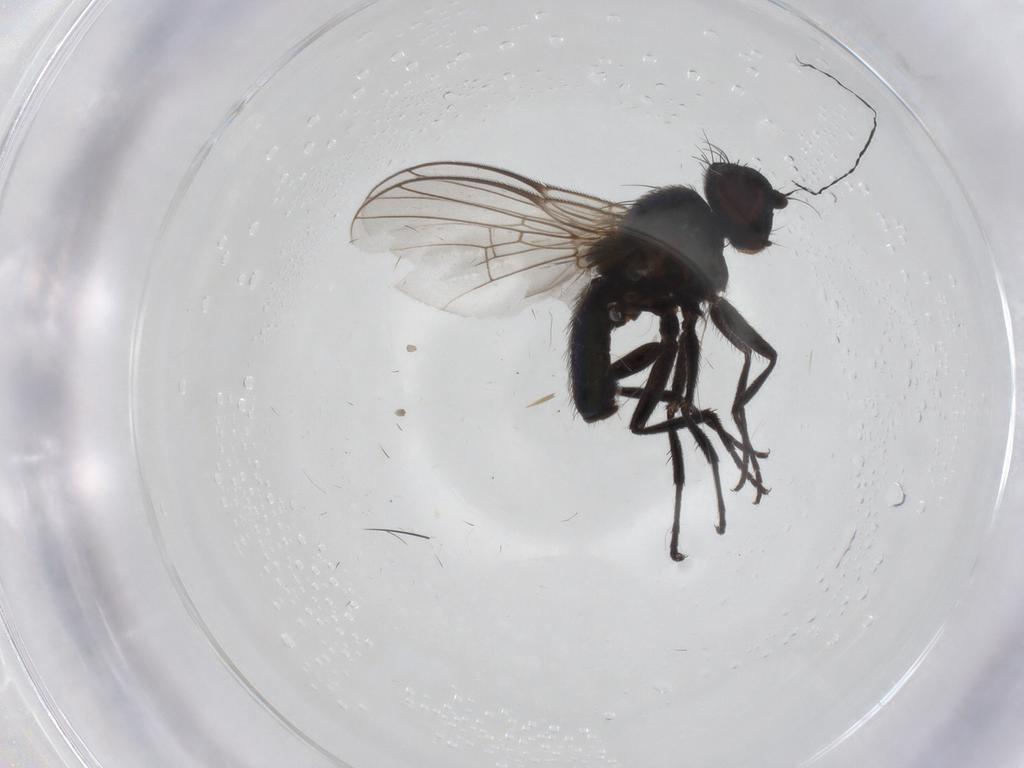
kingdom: Animalia
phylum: Arthropoda
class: Insecta
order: Diptera
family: Agromyzidae
